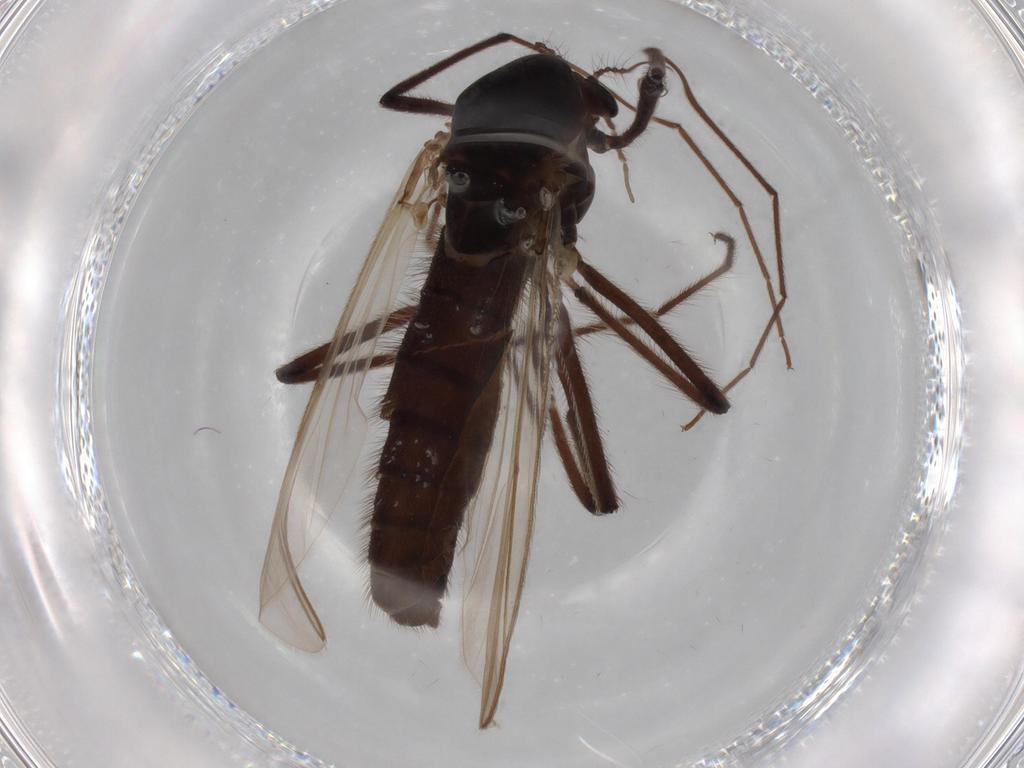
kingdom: Animalia
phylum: Arthropoda
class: Insecta
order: Diptera
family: Chironomidae
